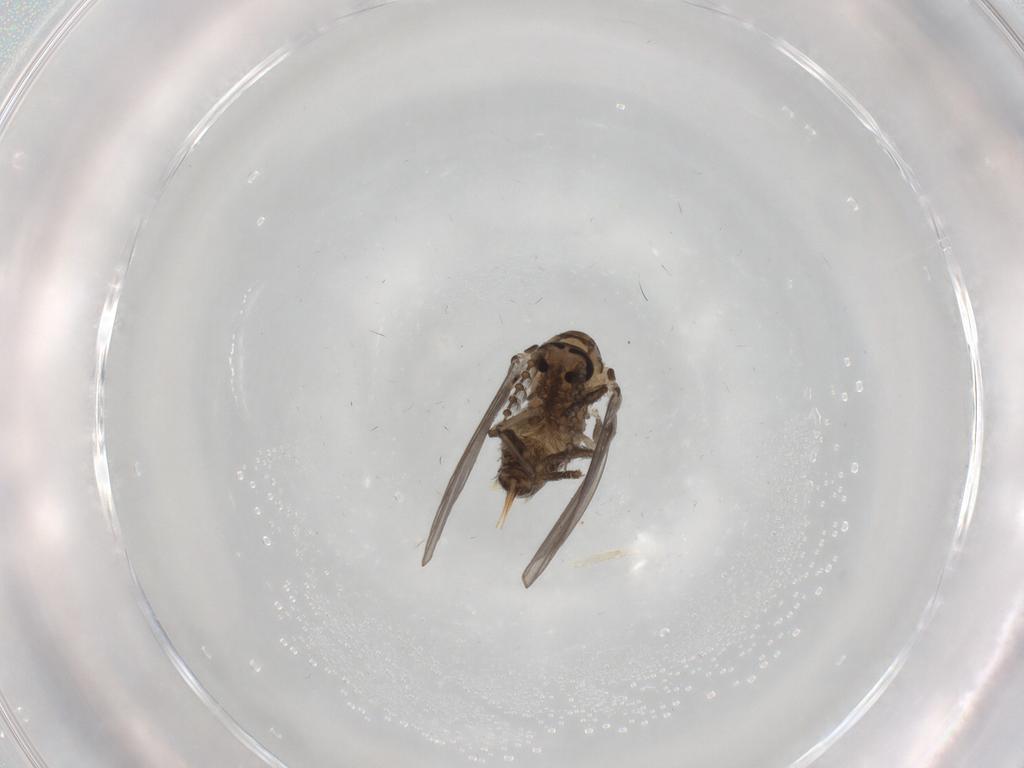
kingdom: Animalia
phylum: Arthropoda
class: Insecta
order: Diptera
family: Psychodidae
